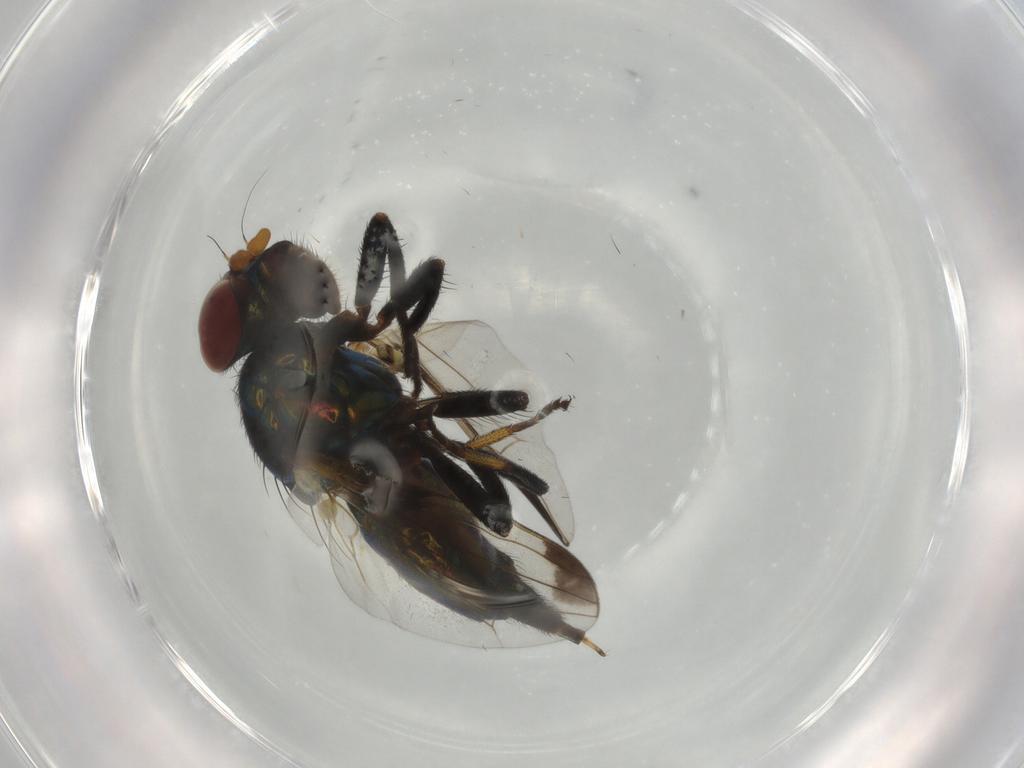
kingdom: Animalia
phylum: Arthropoda
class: Insecta
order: Diptera
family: Ulidiidae
